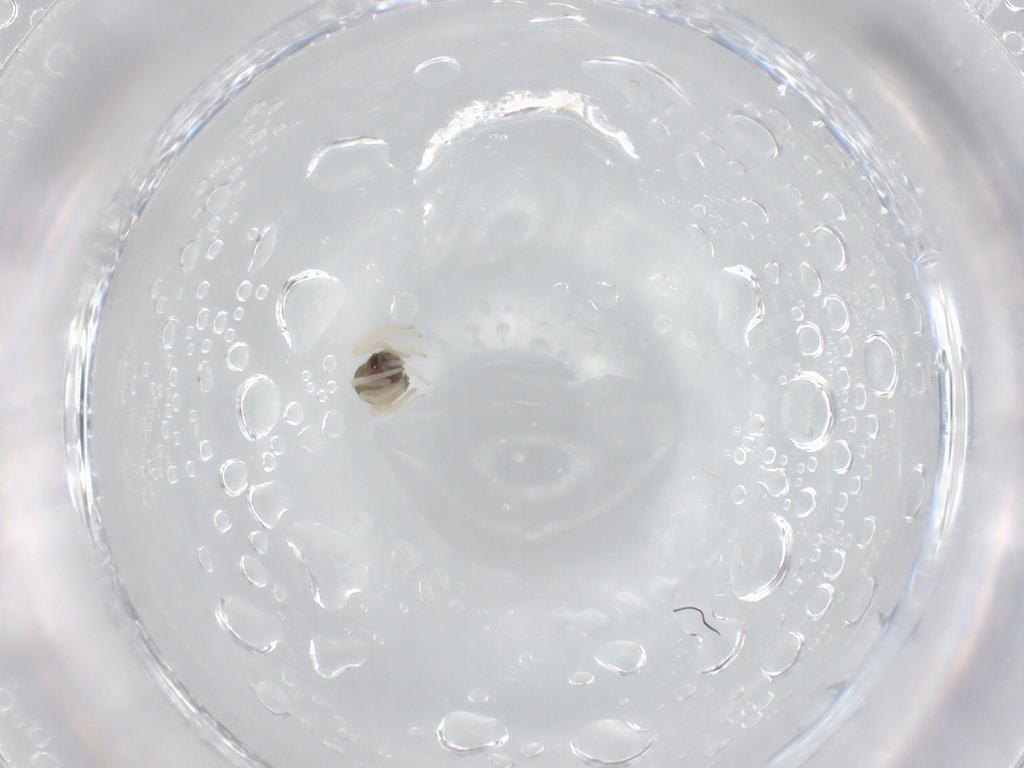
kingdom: Animalia
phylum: Arthropoda
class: Arachnida
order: Araneae
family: Theridiidae
